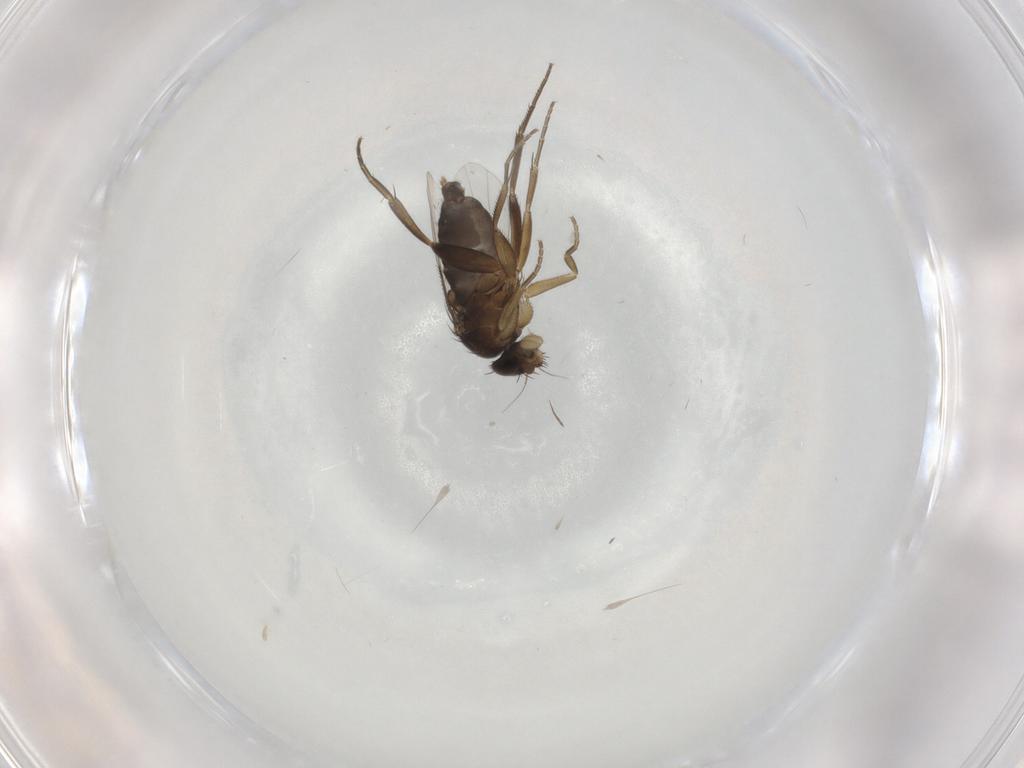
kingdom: Animalia
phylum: Arthropoda
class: Insecta
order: Diptera
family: Phoridae
